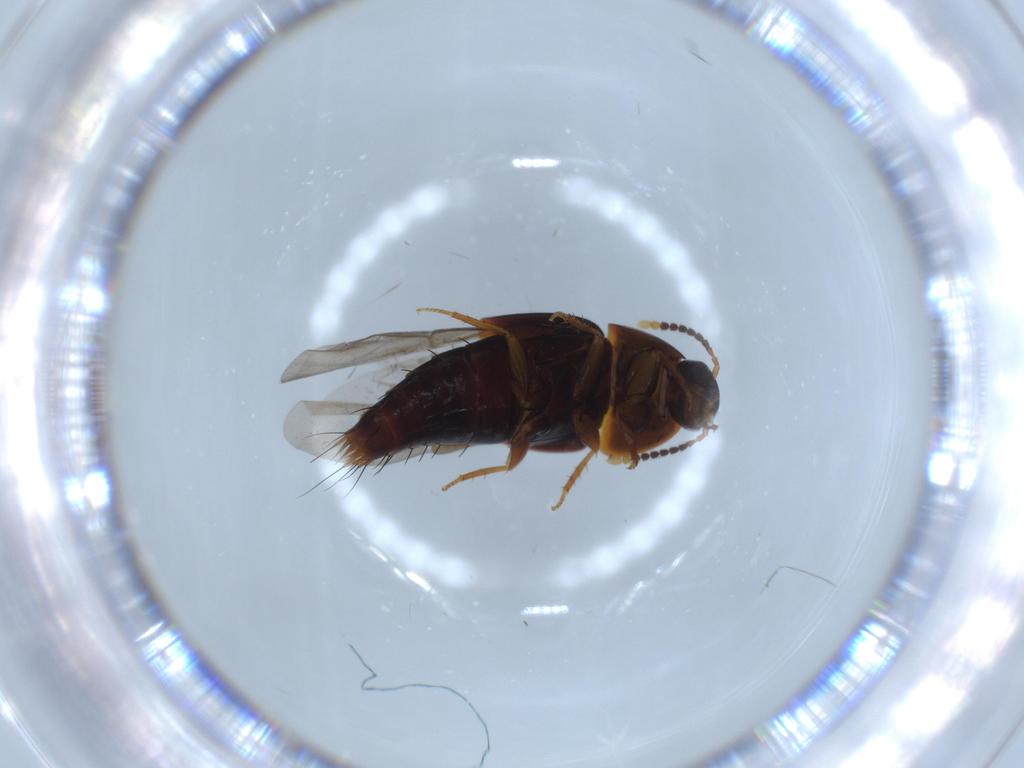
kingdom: Animalia
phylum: Arthropoda
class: Insecta
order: Coleoptera
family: Staphylinidae
